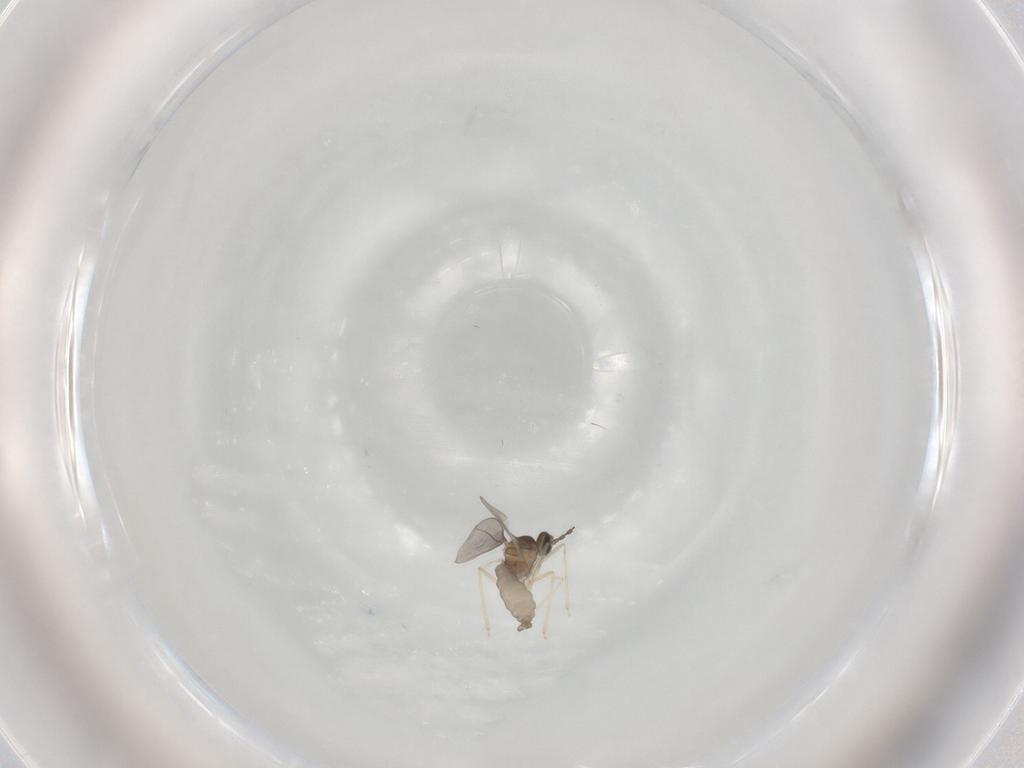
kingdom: Animalia
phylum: Arthropoda
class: Insecta
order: Diptera
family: Cecidomyiidae
